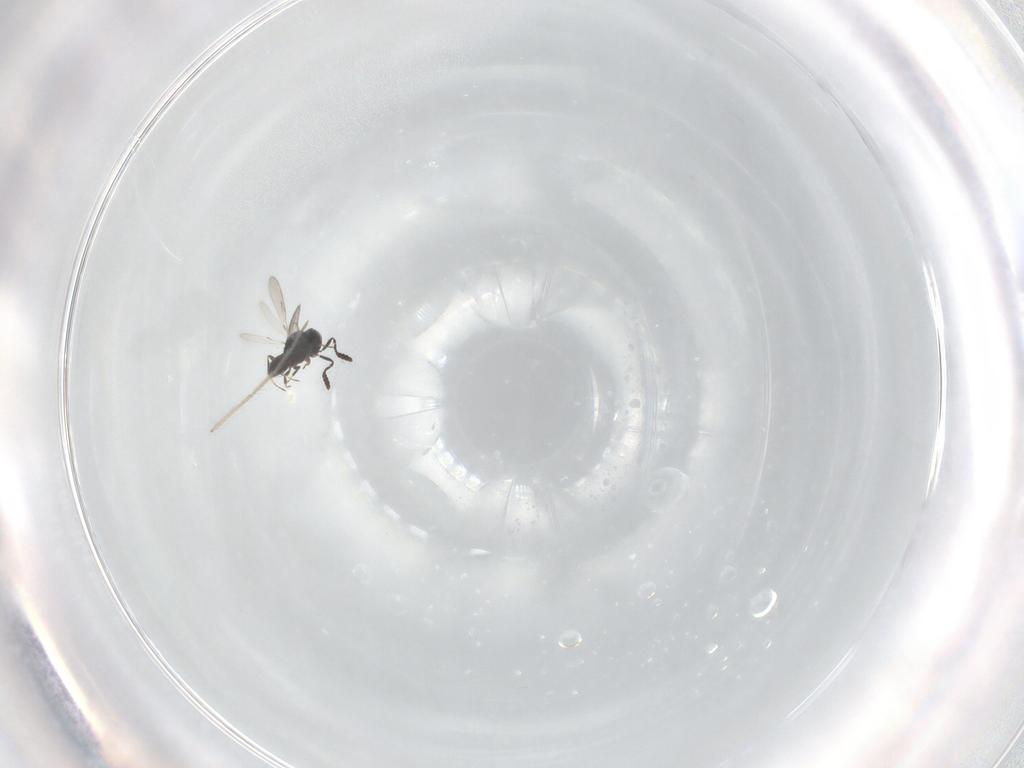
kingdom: Animalia
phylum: Arthropoda
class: Insecta
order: Hymenoptera
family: Scelionidae
